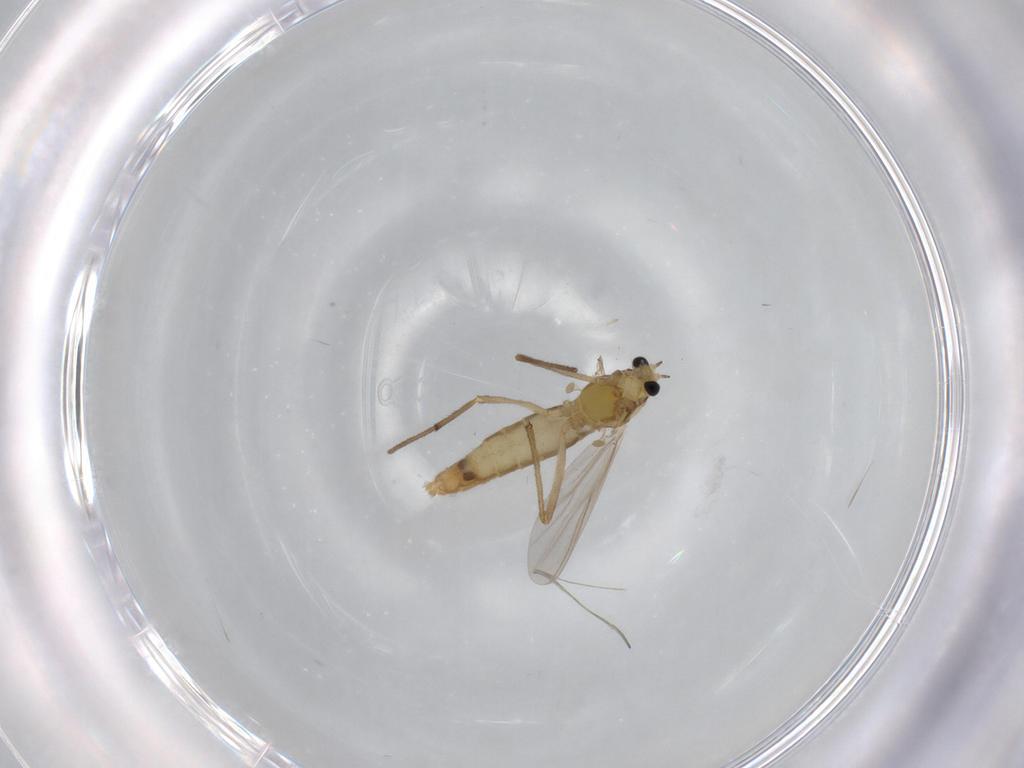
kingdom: Animalia
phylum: Arthropoda
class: Insecta
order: Diptera
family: Chironomidae
